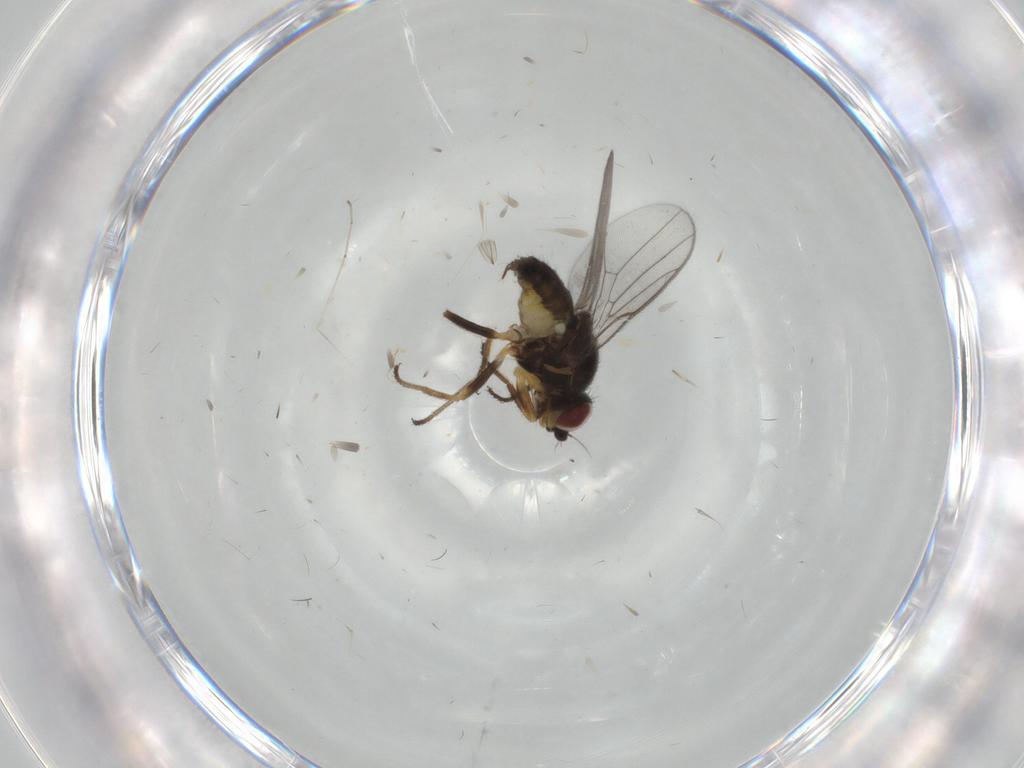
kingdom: Animalia
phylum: Arthropoda
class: Insecta
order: Diptera
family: Chloropidae
